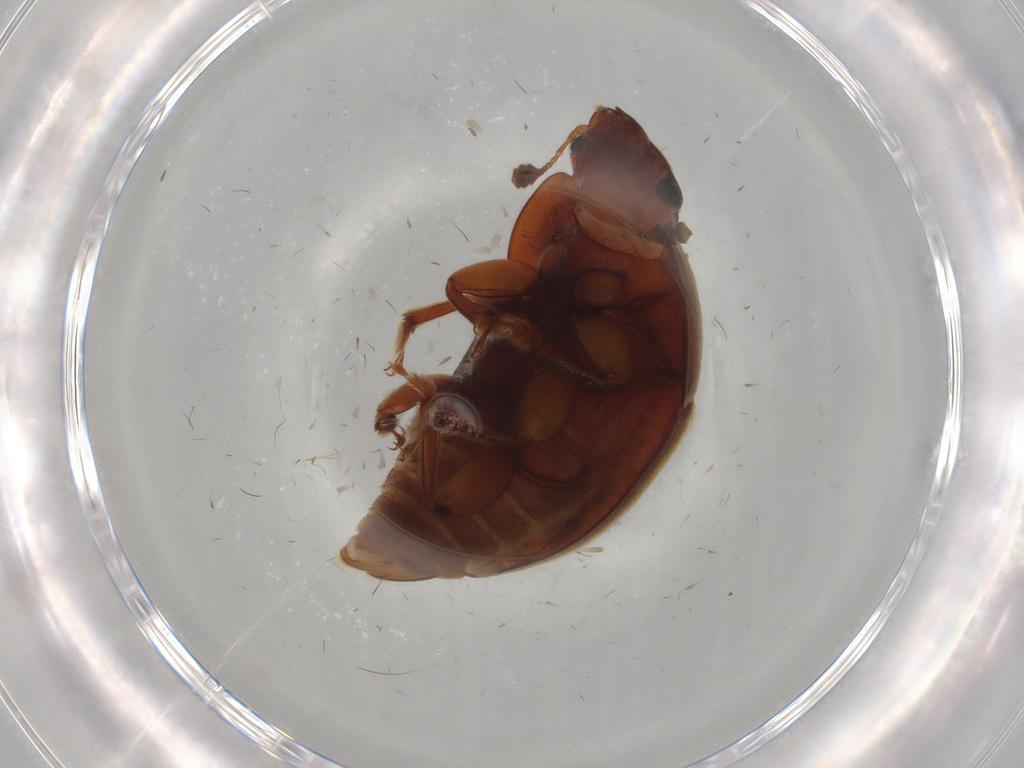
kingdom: Animalia
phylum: Arthropoda
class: Insecta
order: Coleoptera
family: Nitidulidae
